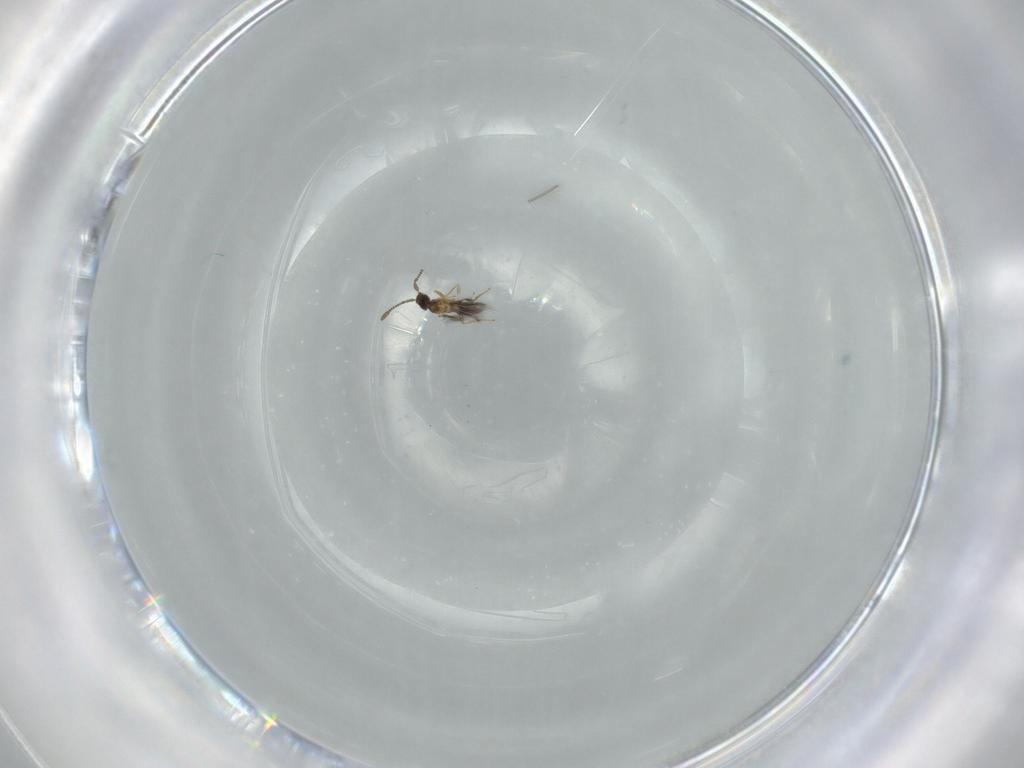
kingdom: Animalia
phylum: Arthropoda
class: Insecta
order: Hymenoptera
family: Mymaridae
